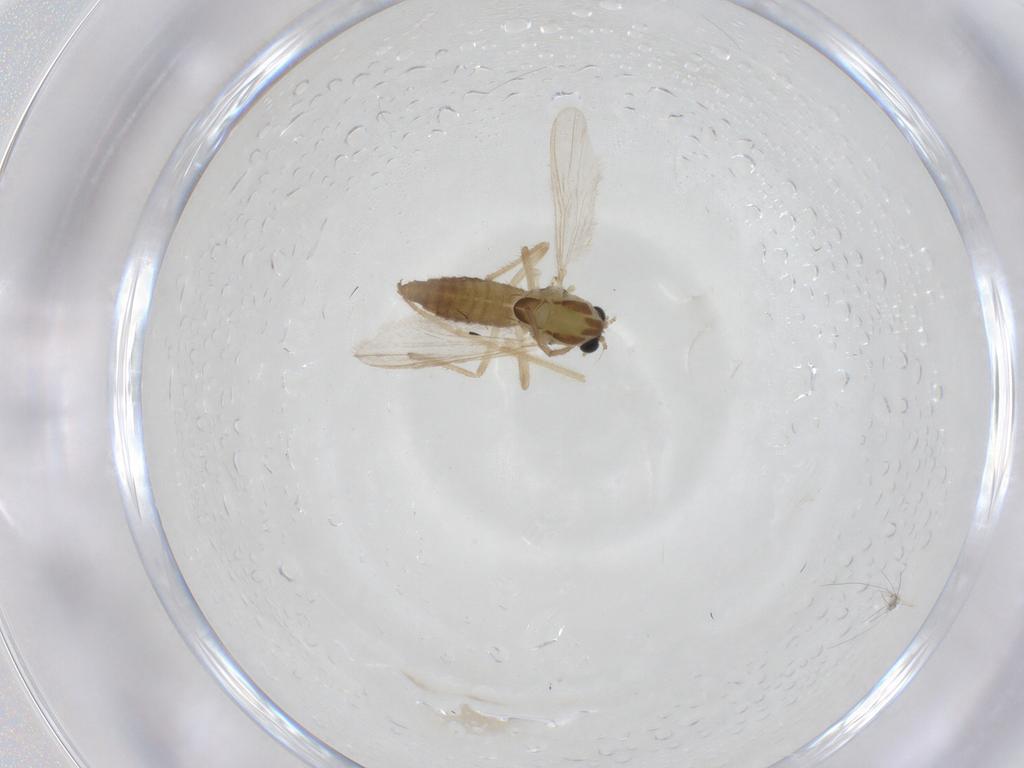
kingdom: Animalia
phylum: Arthropoda
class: Insecta
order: Diptera
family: Chironomidae
